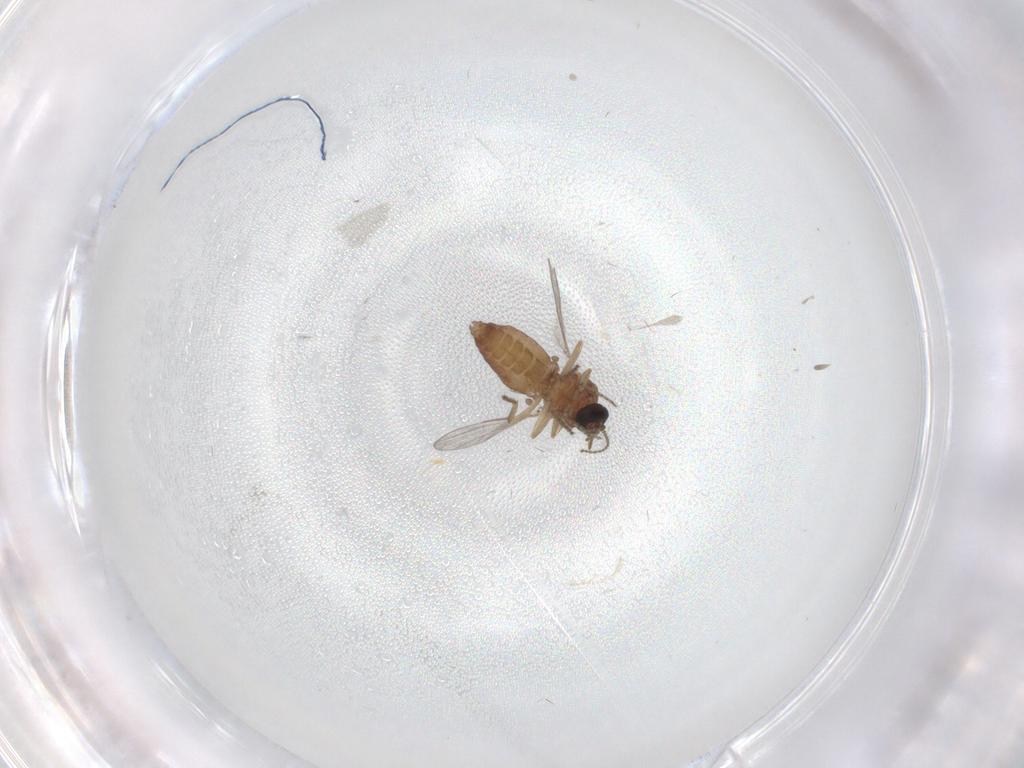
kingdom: Animalia
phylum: Arthropoda
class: Insecta
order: Diptera
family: Ceratopogonidae
